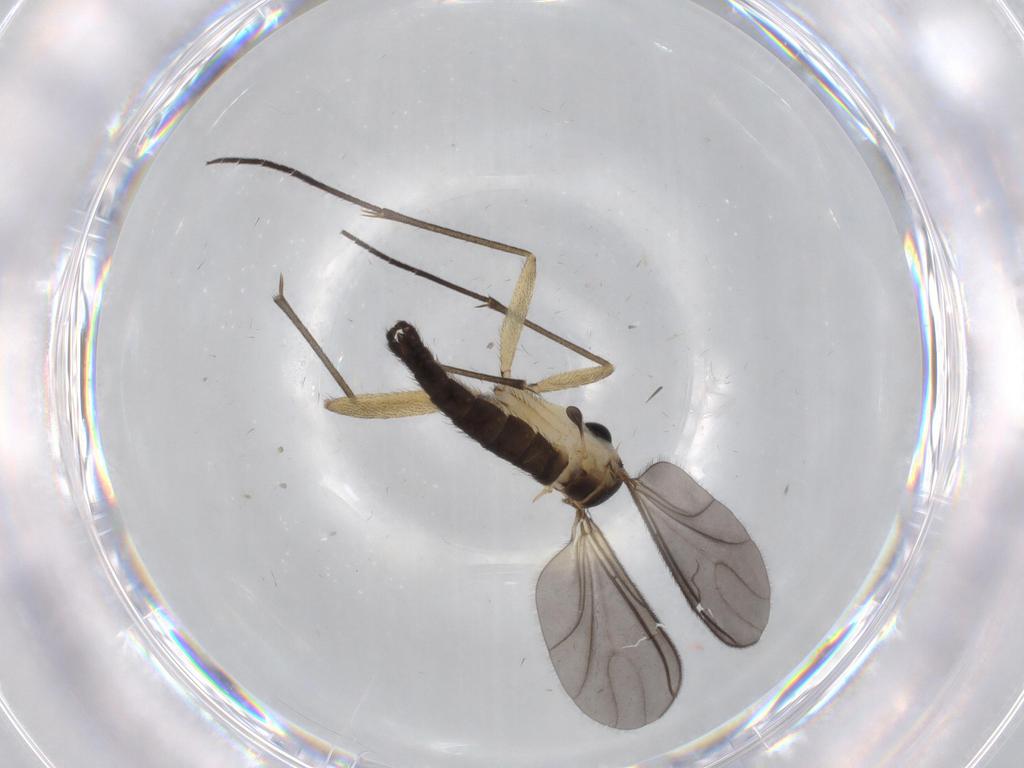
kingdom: Animalia
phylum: Arthropoda
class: Insecta
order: Diptera
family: Sciaridae
